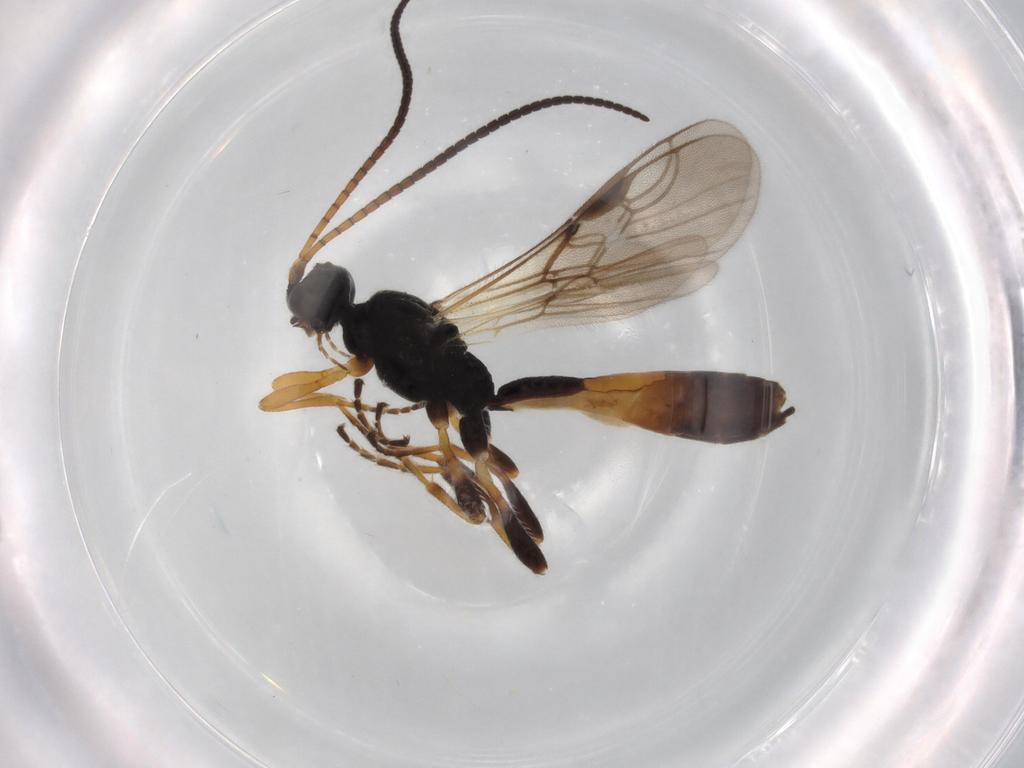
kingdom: Animalia
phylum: Arthropoda
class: Insecta
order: Hymenoptera
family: Braconidae
